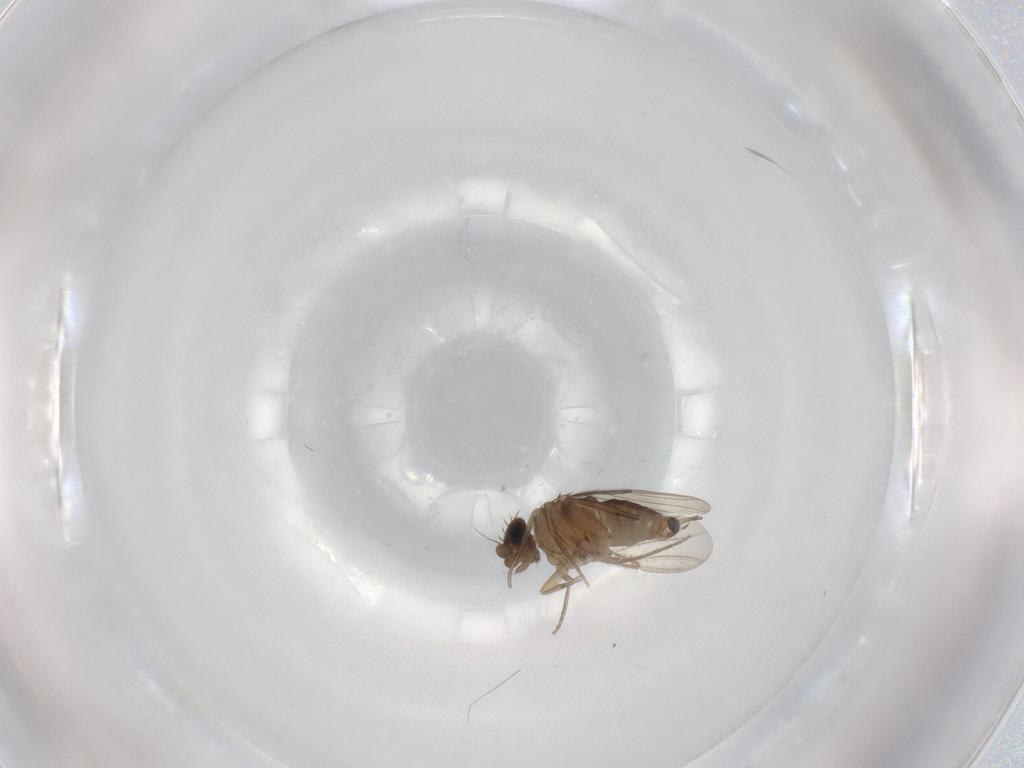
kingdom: Animalia
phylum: Arthropoda
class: Insecta
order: Diptera
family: Phoridae
